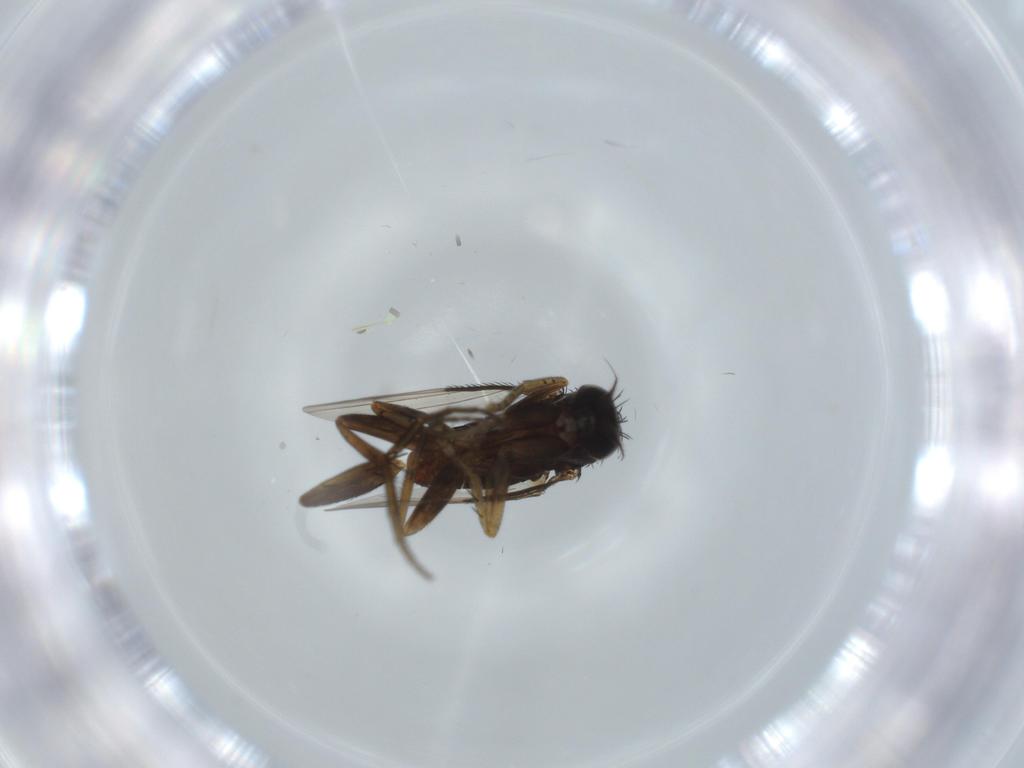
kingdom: Animalia
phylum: Arthropoda
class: Insecta
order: Diptera
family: Phoridae
